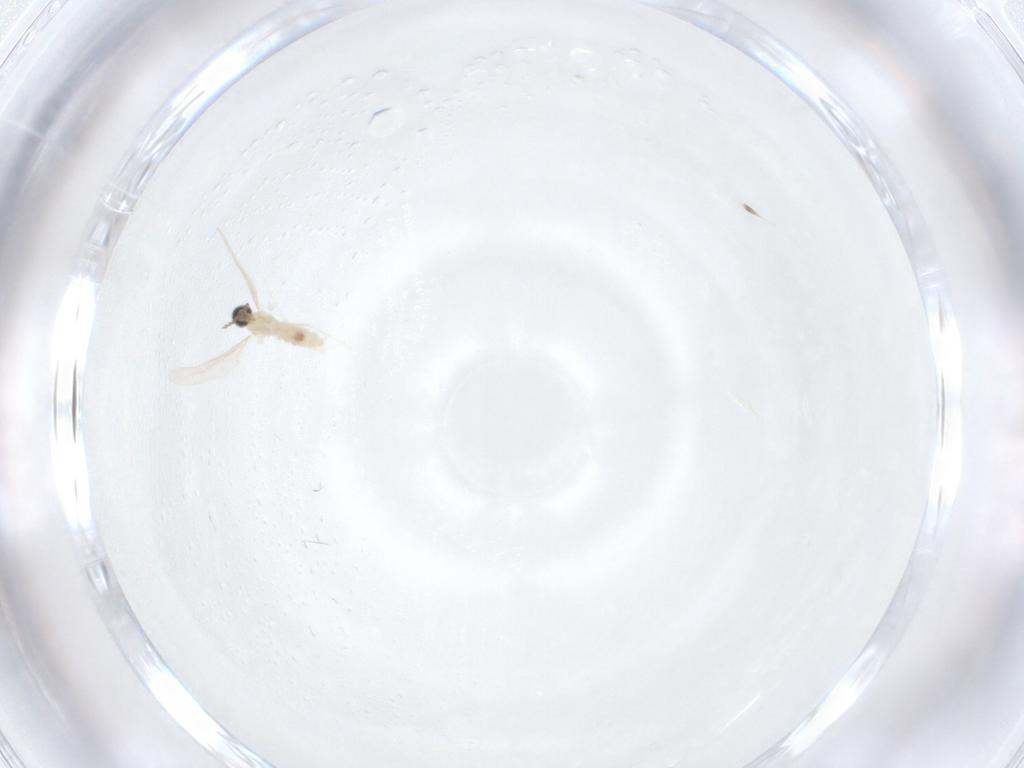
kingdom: Animalia
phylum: Arthropoda
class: Insecta
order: Diptera
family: Cecidomyiidae
